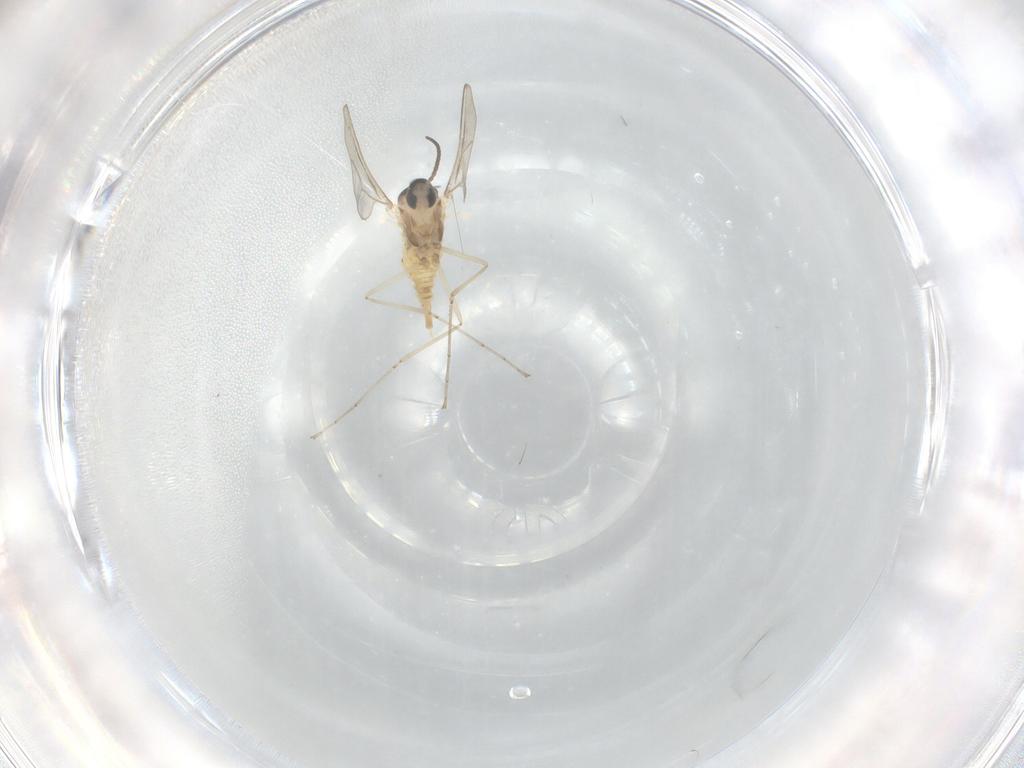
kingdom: Animalia
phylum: Arthropoda
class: Insecta
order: Diptera
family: Cecidomyiidae
